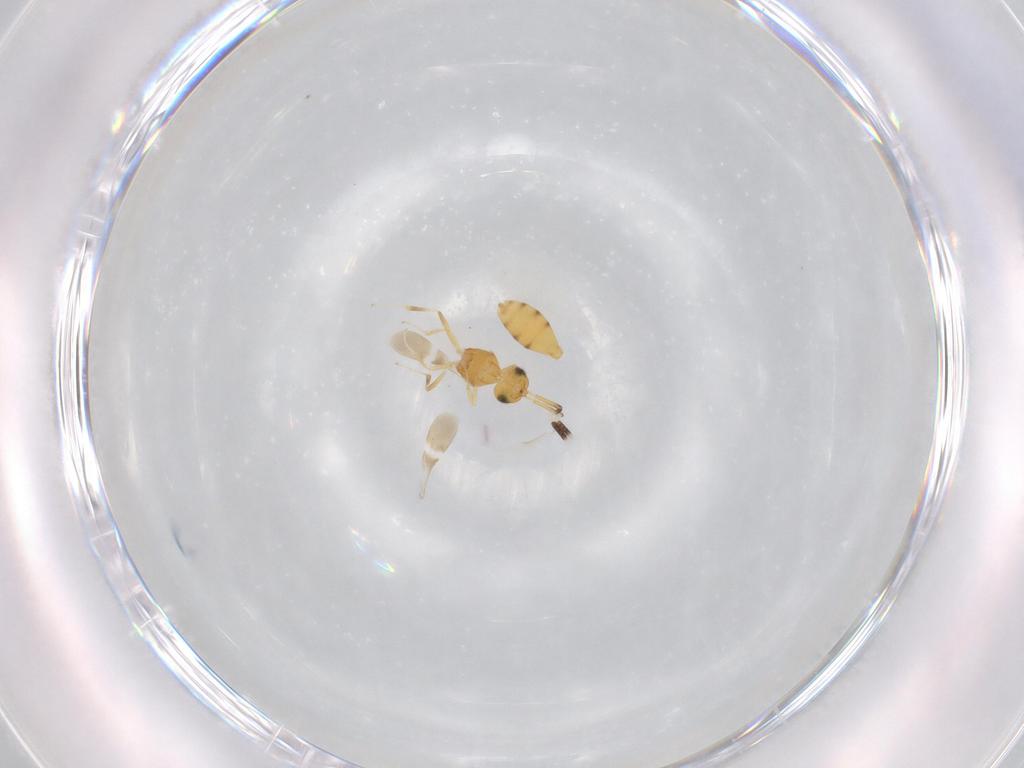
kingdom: Animalia
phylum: Arthropoda
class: Insecta
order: Hymenoptera
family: Scelionidae
